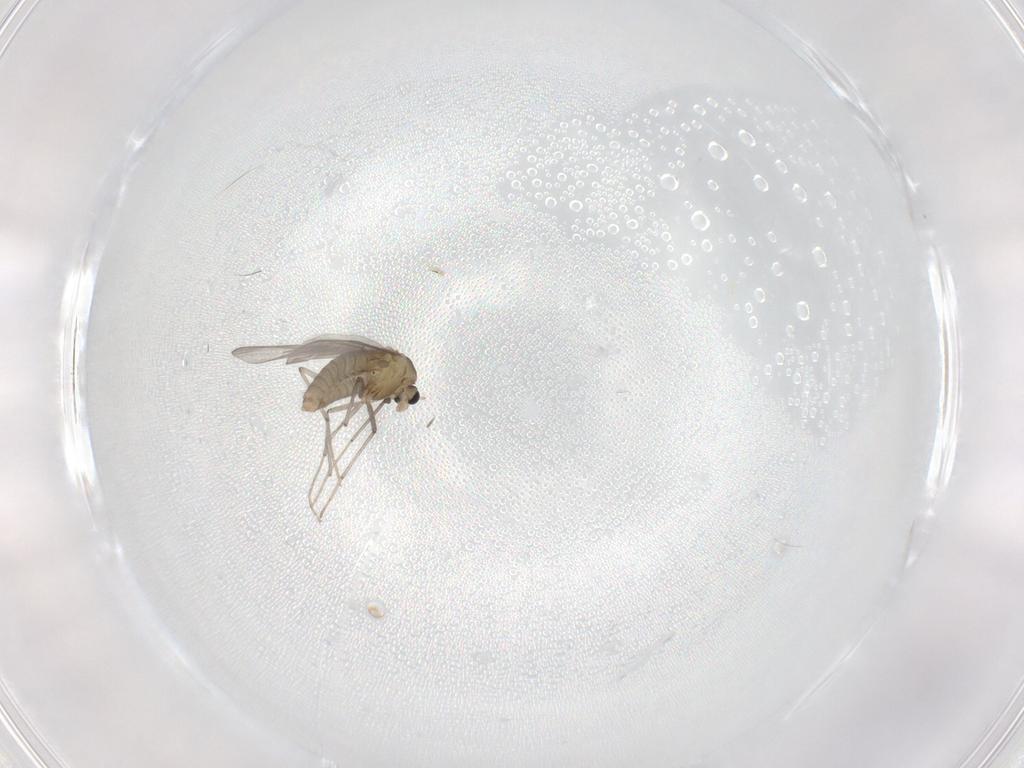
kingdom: Animalia
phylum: Arthropoda
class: Insecta
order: Diptera
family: Chironomidae
